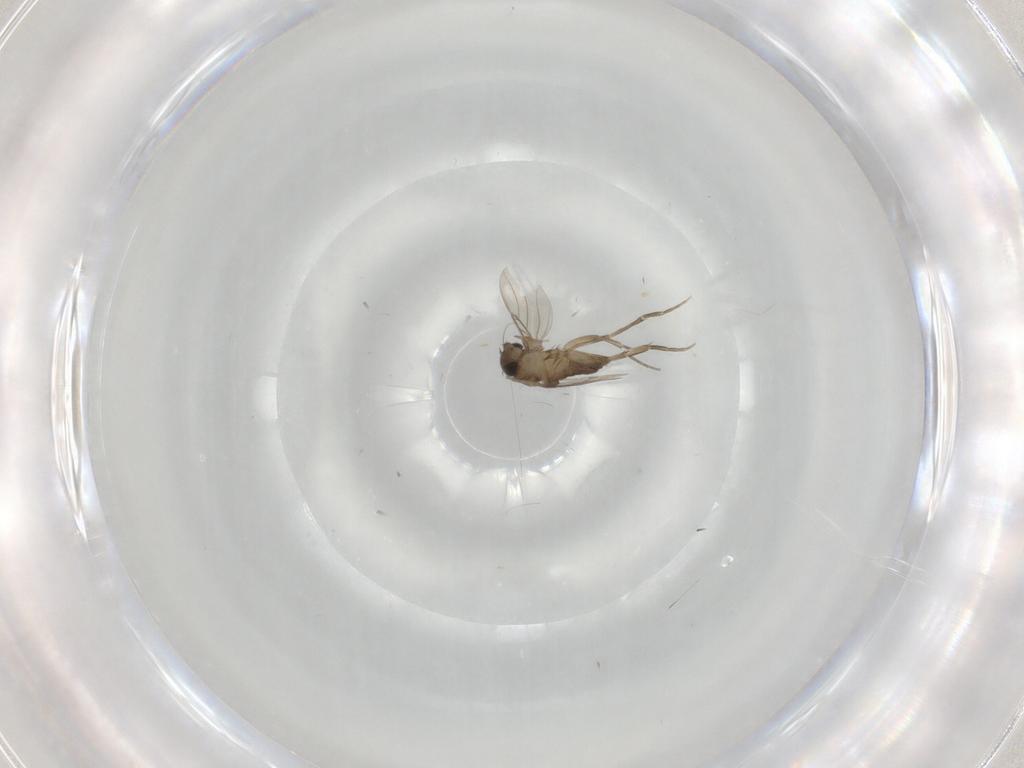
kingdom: Animalia
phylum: Arthropoda
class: Insecta
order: Diptera
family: Phoridae
